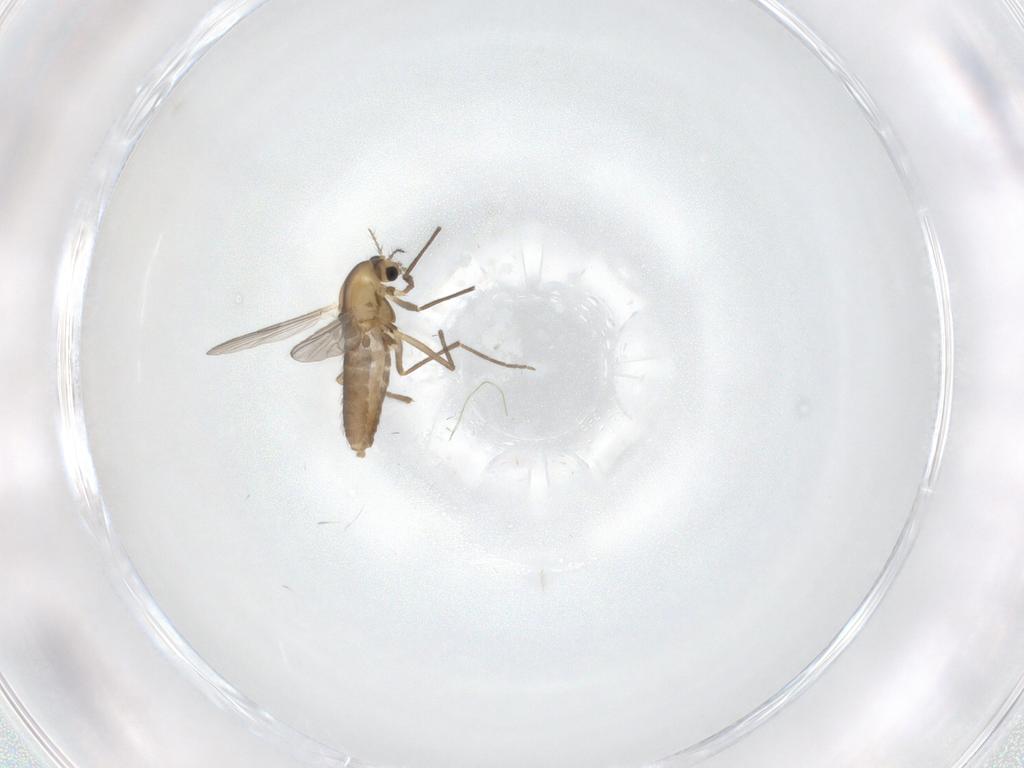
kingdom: Animalia
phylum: Arthropoda
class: Insecta
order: Diptera
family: Chironomidae
